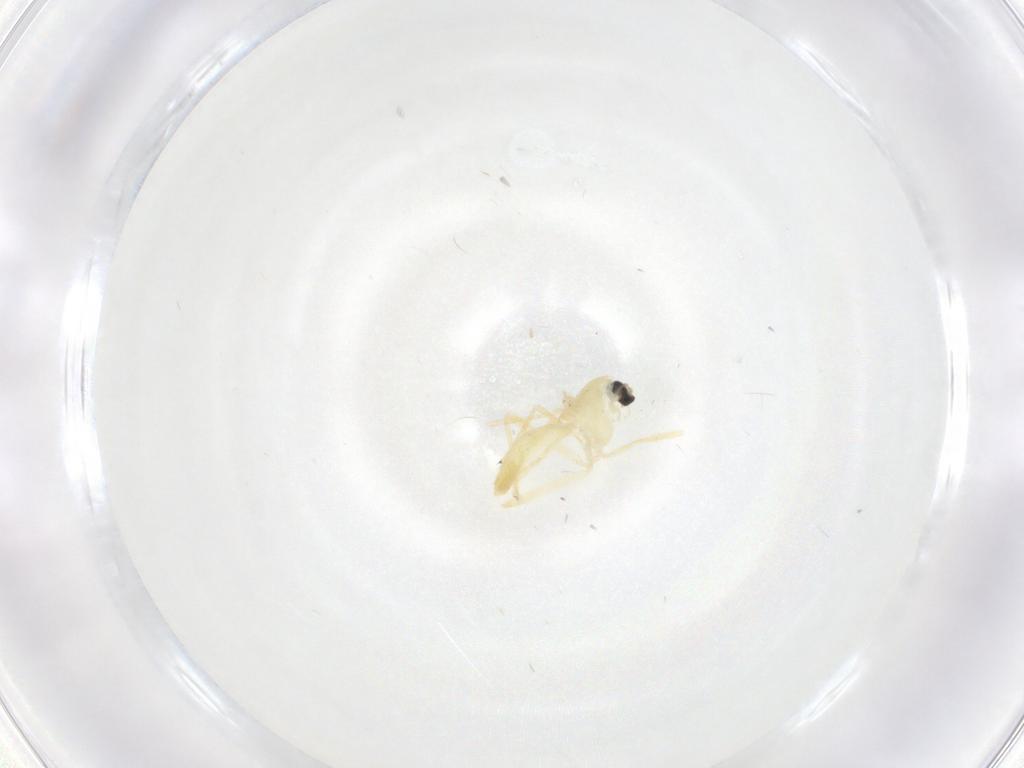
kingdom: Animalia
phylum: Arthropoda
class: Insecta
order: Diptera
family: Chironomidae
